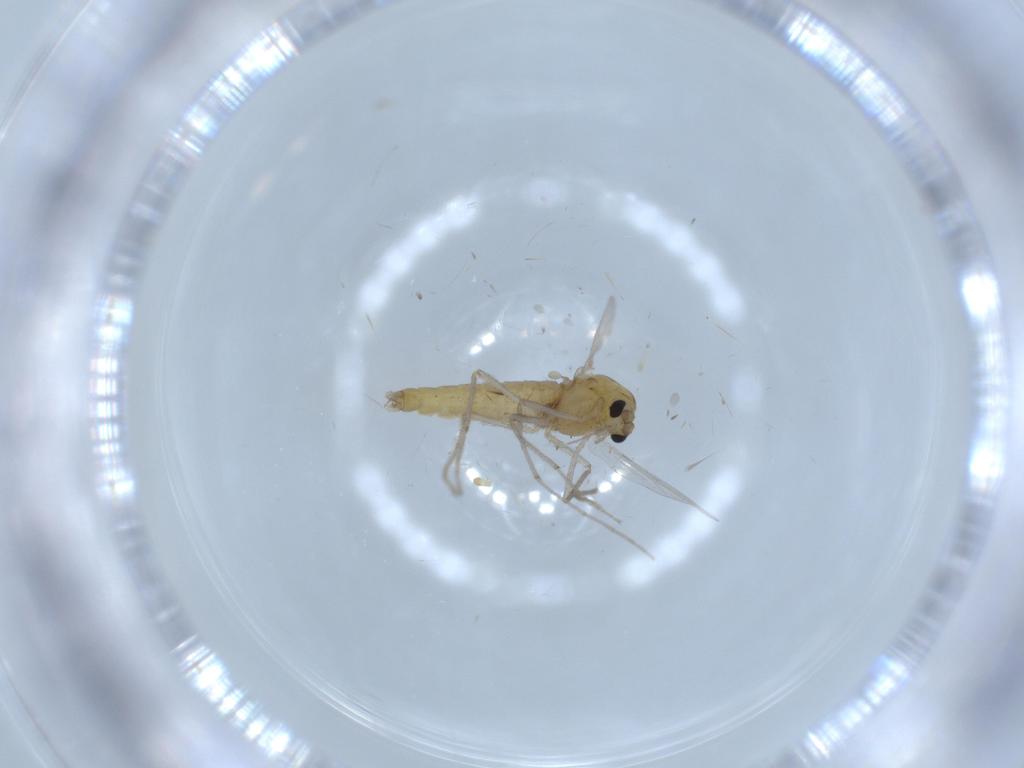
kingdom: Animalia
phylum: Arthropoda
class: Insecta
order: Diptera
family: Chironomidae
